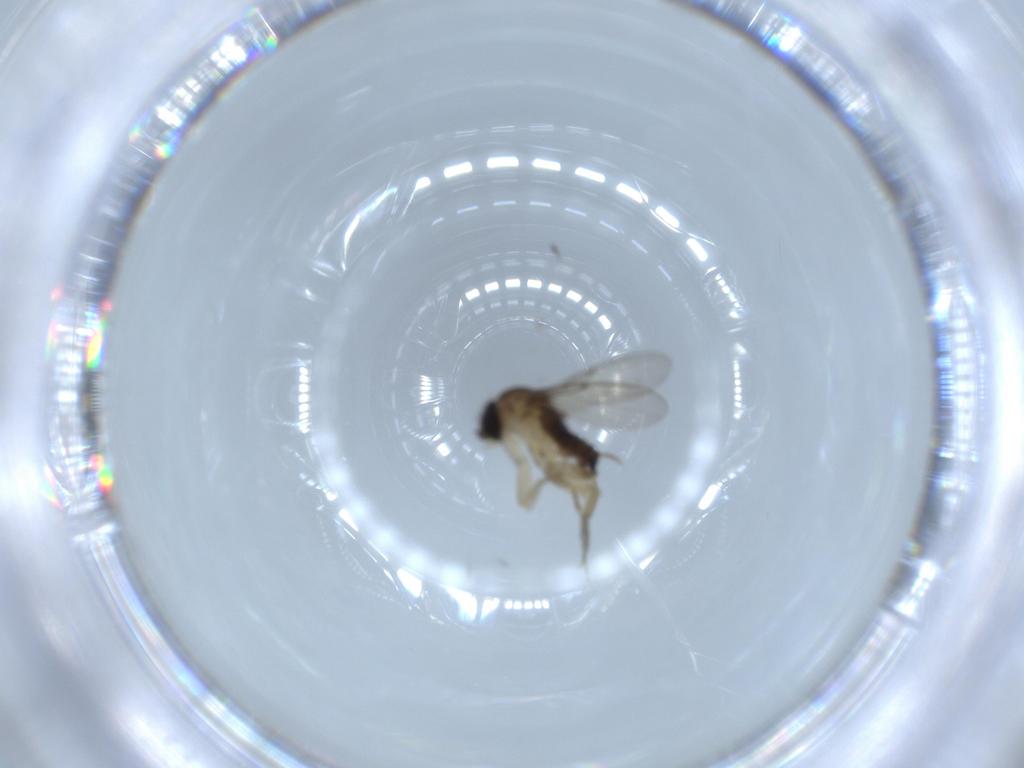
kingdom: Animalia
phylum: Arthropoda
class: Insecta
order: Diptera
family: Phoridae
